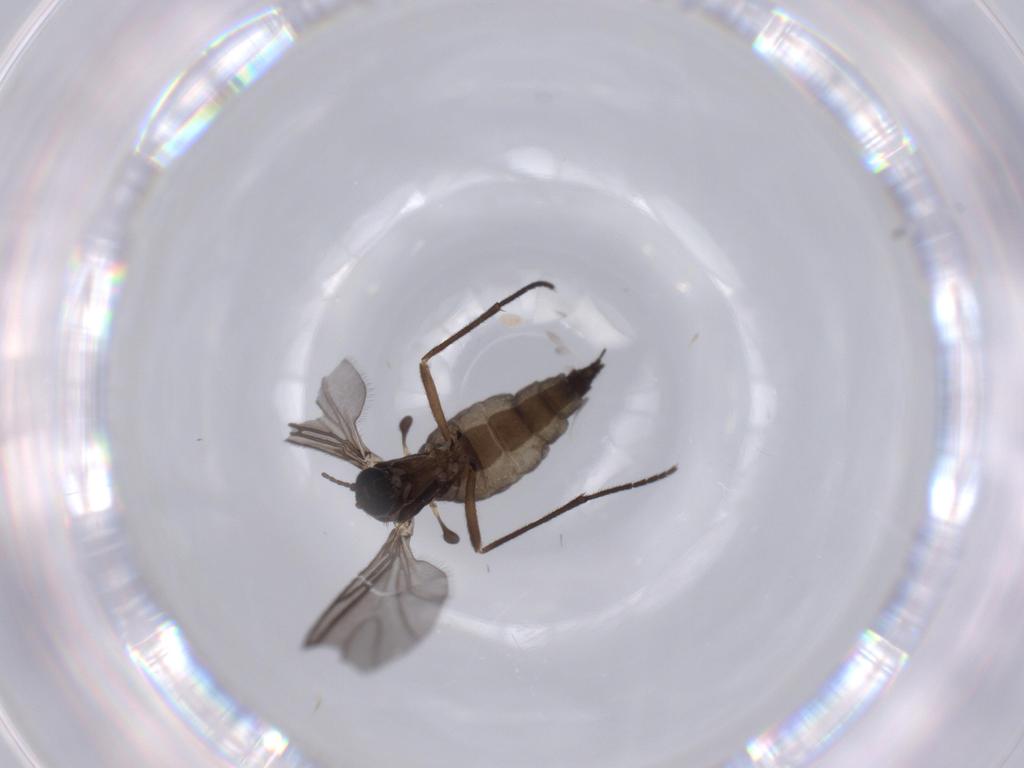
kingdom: Animalia
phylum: Arthropoda
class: Insecta
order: Diptera
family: Sciaridae
